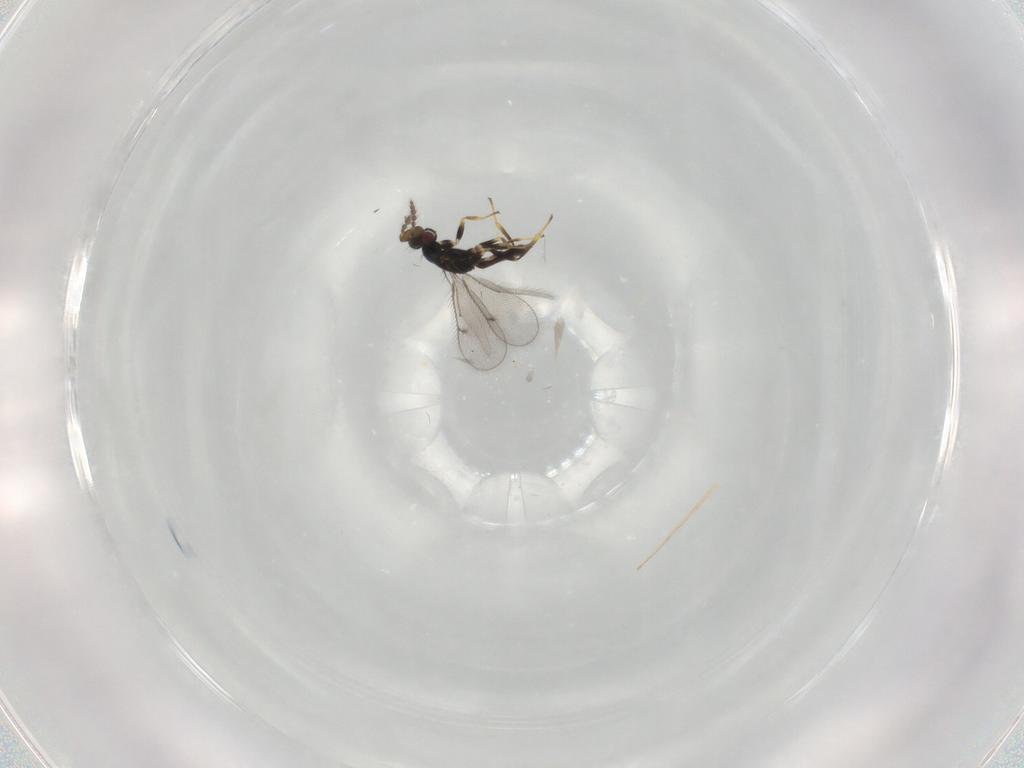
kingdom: Animalia
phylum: Arthropoda
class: Insecta
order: Hymenoptera
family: Eulophidae
